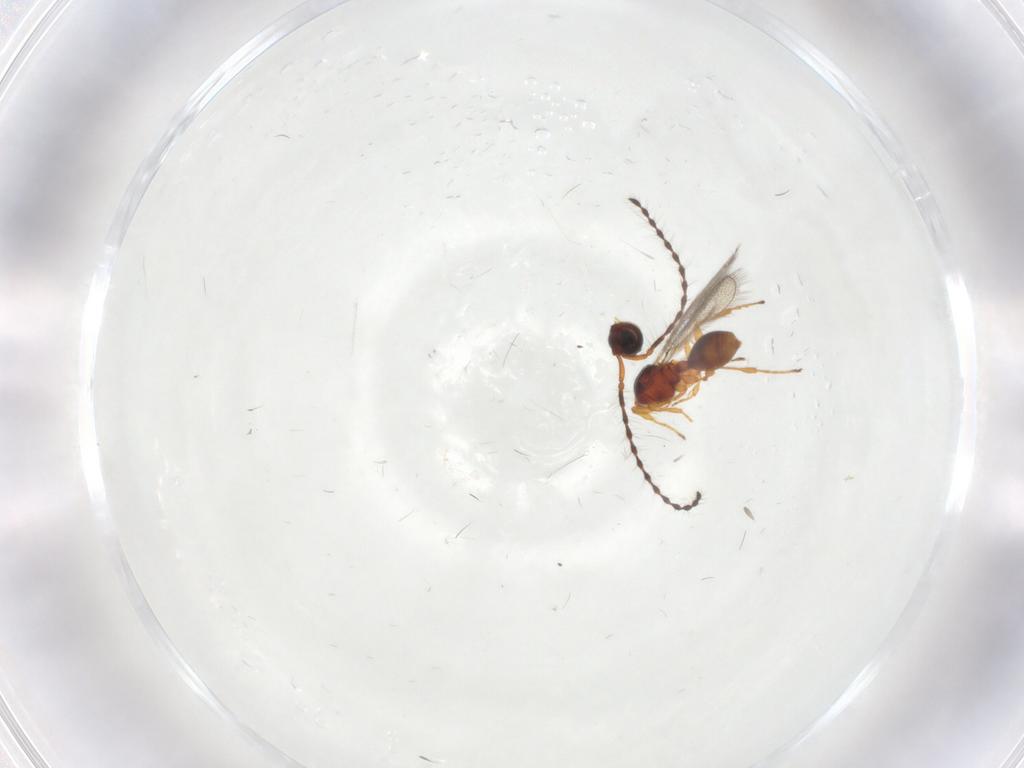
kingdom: Animalia
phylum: Arthropoda
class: Insecta
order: Hymenoptera
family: Diapriidae
